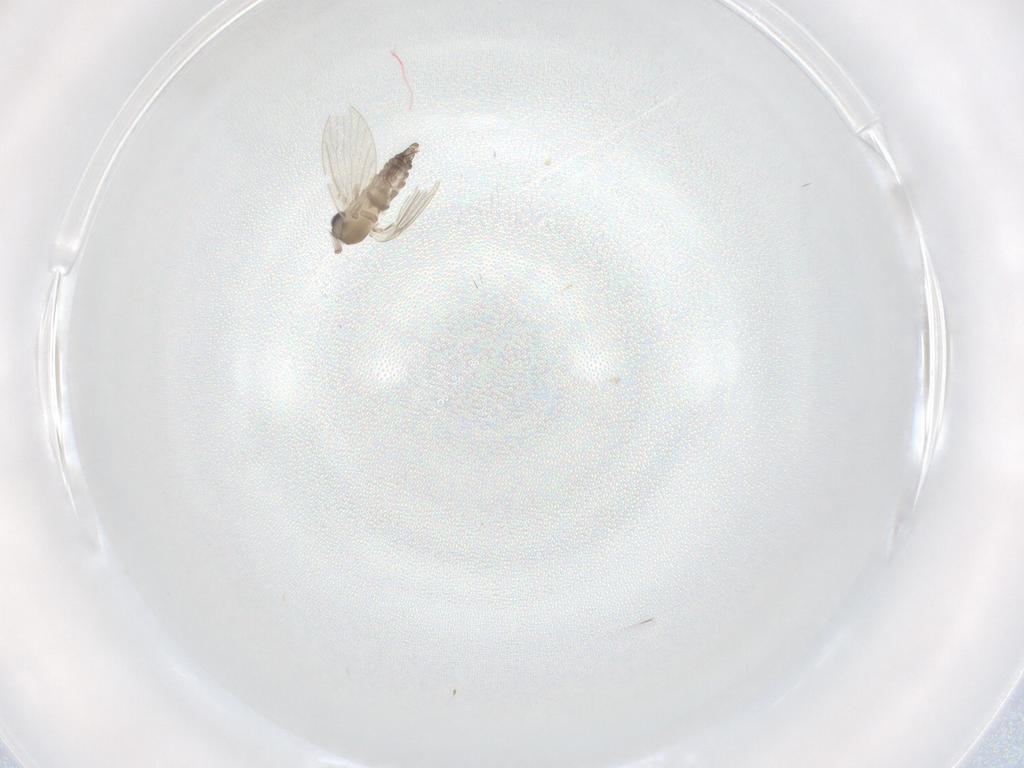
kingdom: Animalia
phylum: Arthropoda
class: Insecta
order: Diptera
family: Psychodidae
